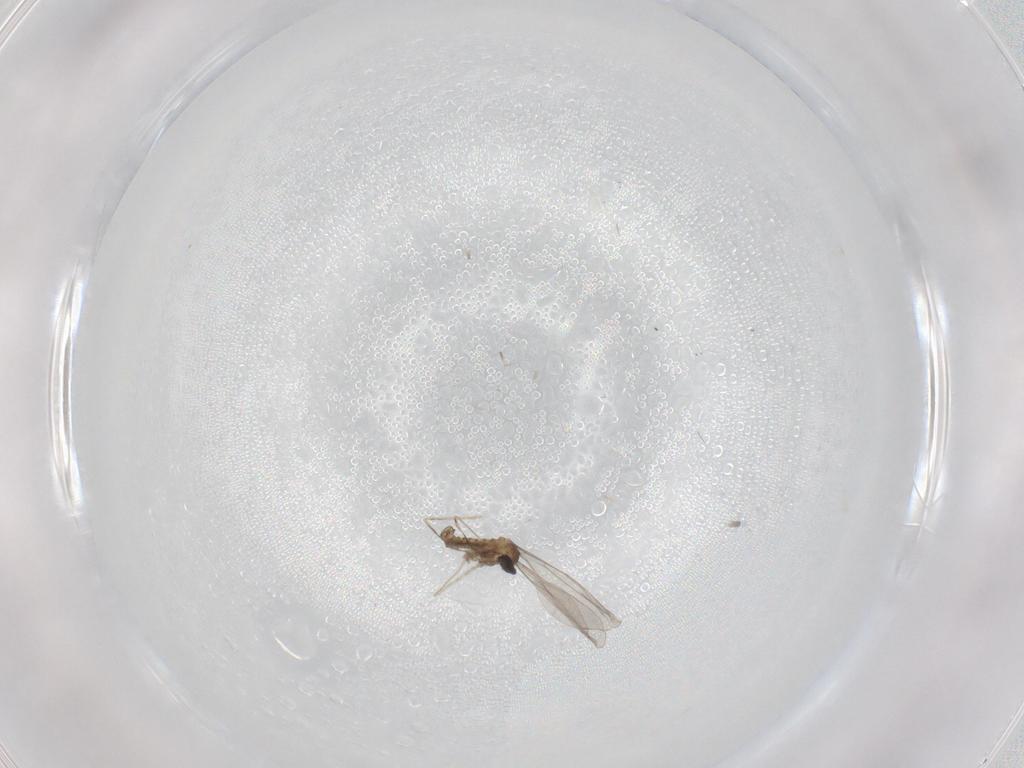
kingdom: Animalia
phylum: Arthropoda
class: Insecta
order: Diptera
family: Cecidomyiidae
